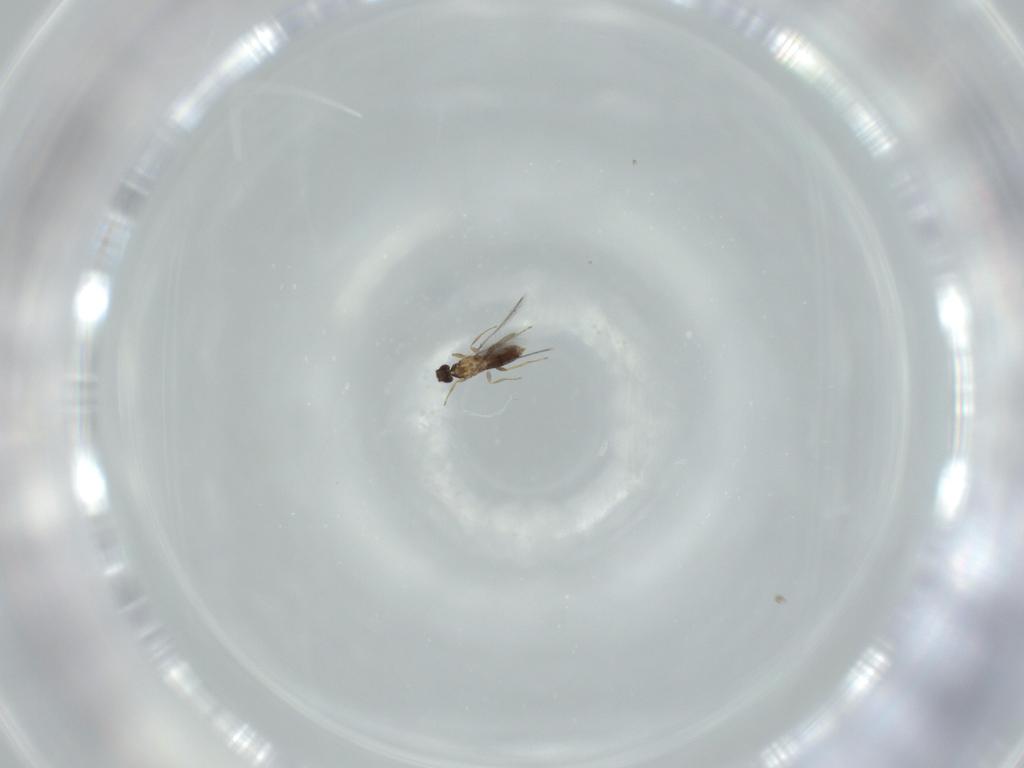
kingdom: Animalia
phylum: Arthropoda
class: Insecta
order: Hymenoptera
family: Mymaridae
